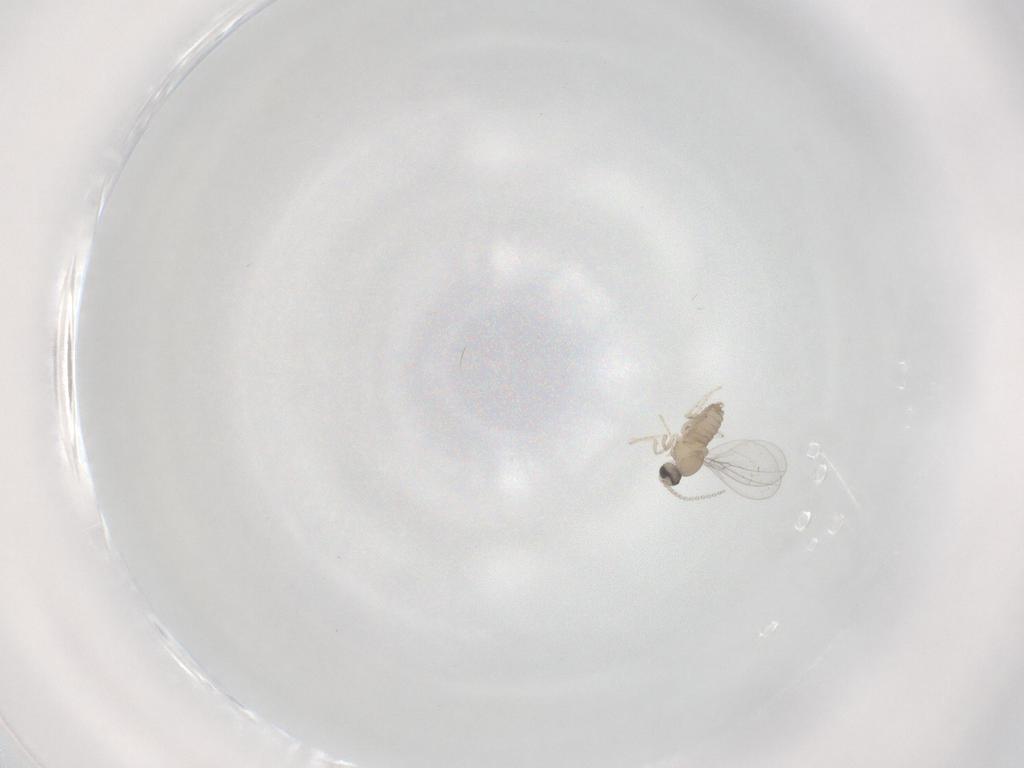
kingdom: Animalia
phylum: Arthropoda
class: Insecta
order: Diptera
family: Cecidomyiidae
